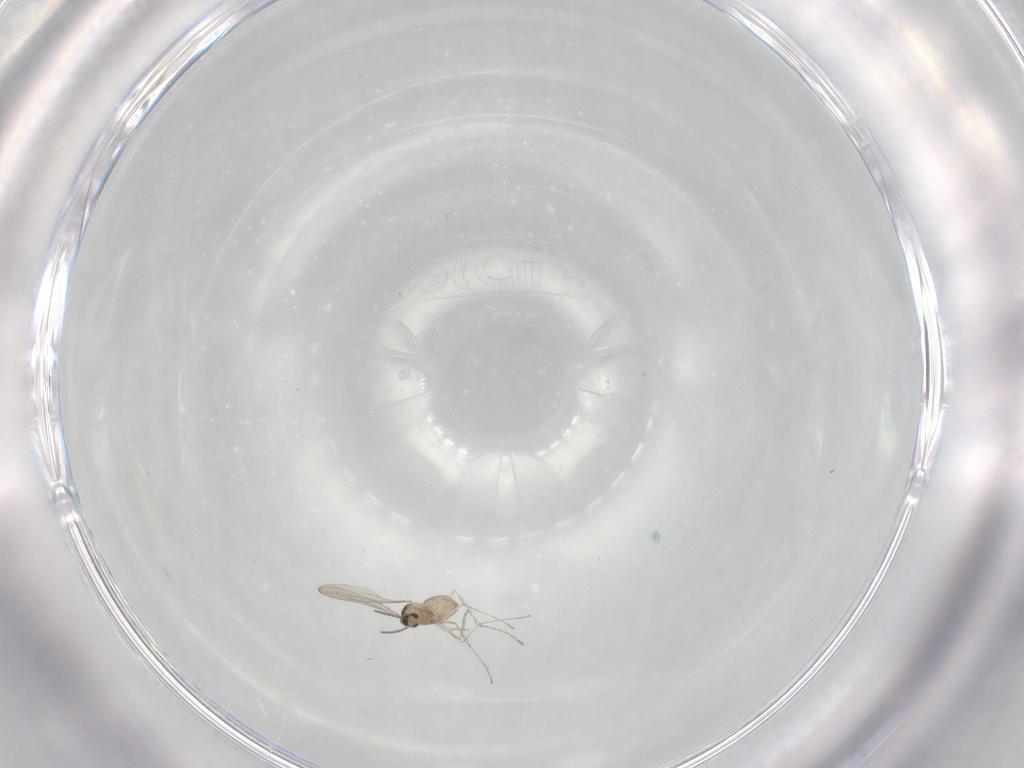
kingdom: Animalia
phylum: Arthropoda
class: Insecta
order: Diptera
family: Cecidomyiidae
